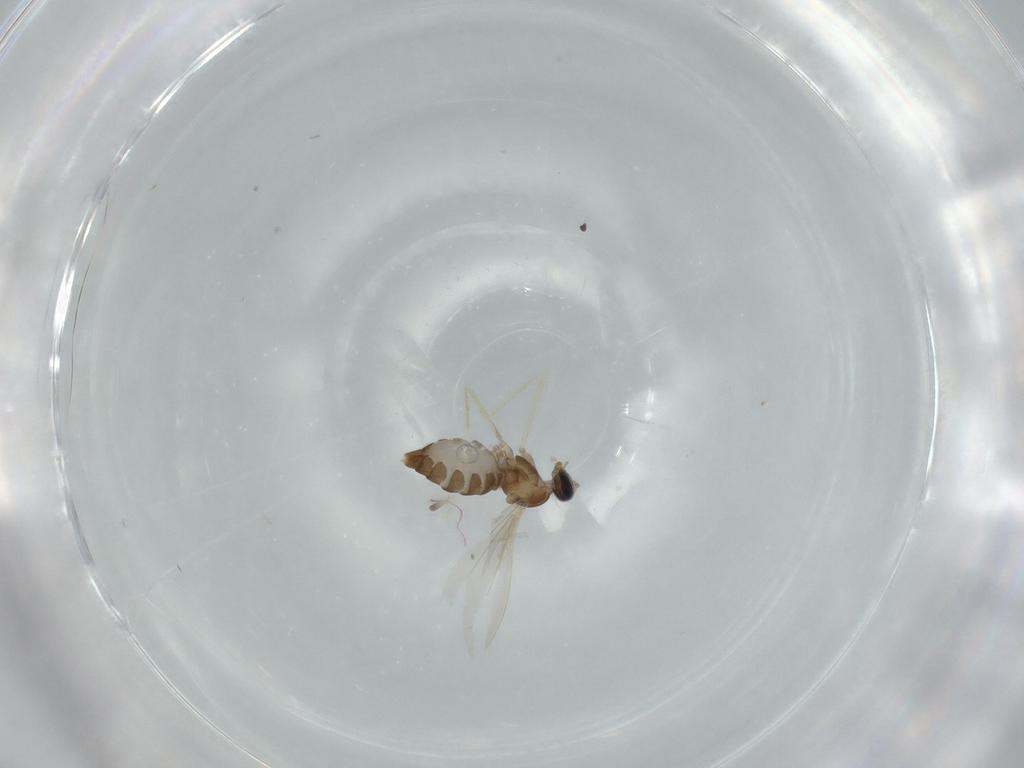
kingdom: Animalia
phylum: Arthropoda
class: Insecta
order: Diptera
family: Cecidomyiidae
